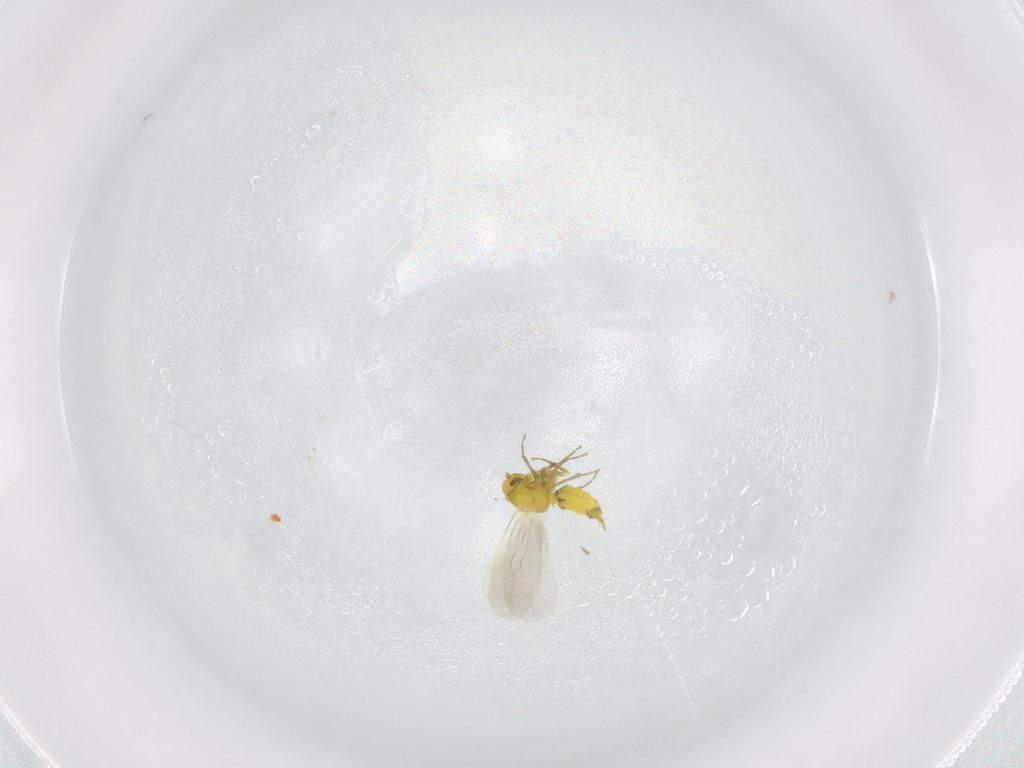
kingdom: Animalia
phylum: Arthropoda
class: Insecta
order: Hemiptera
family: Aleyrodidae
